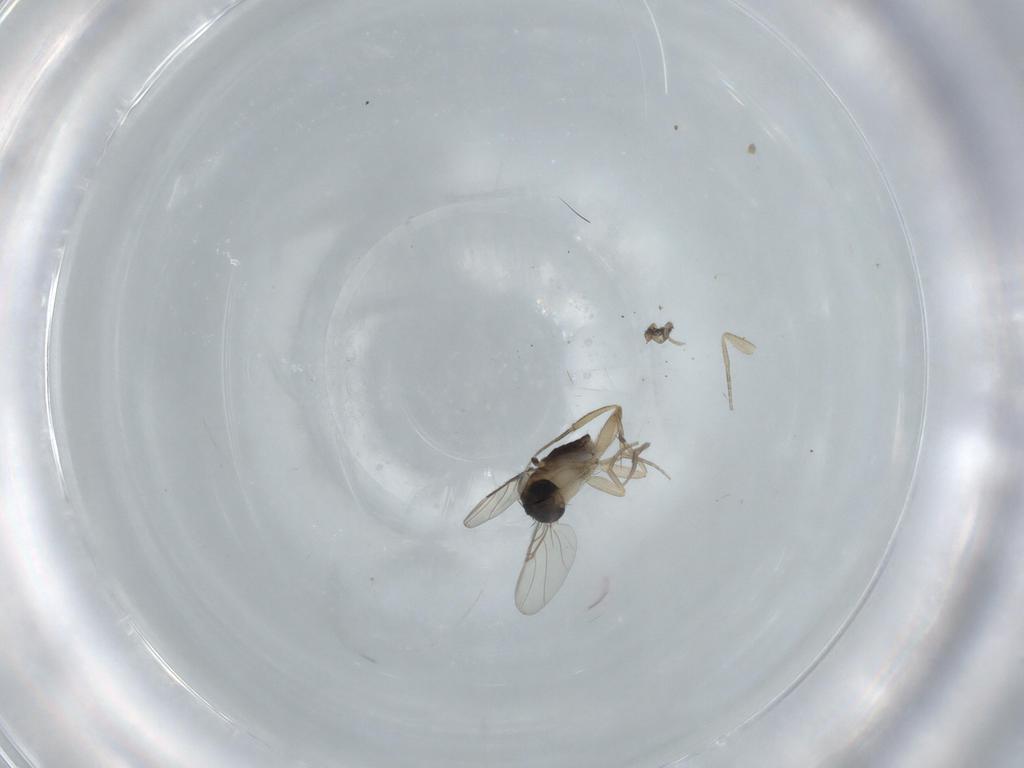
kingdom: Animalia
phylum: Arthropoda
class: Insecta
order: Diptera
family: Phoridae
